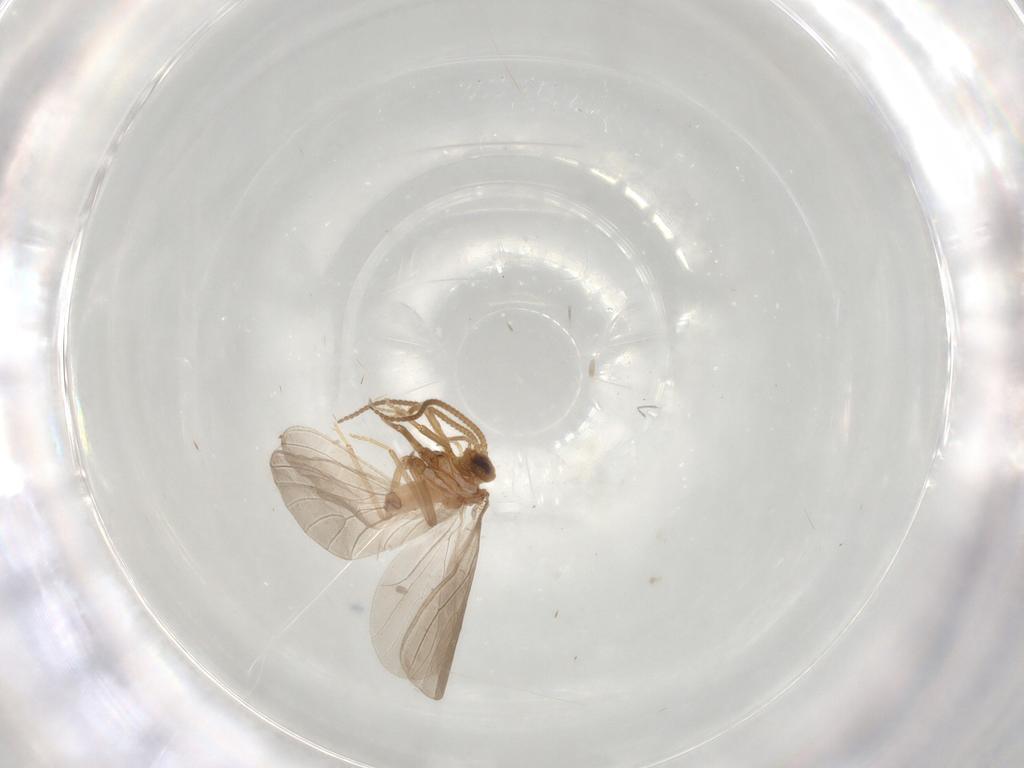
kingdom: Animalia
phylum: Arthropoda
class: Insecta
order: Neuroptera
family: Coniopterygidae
